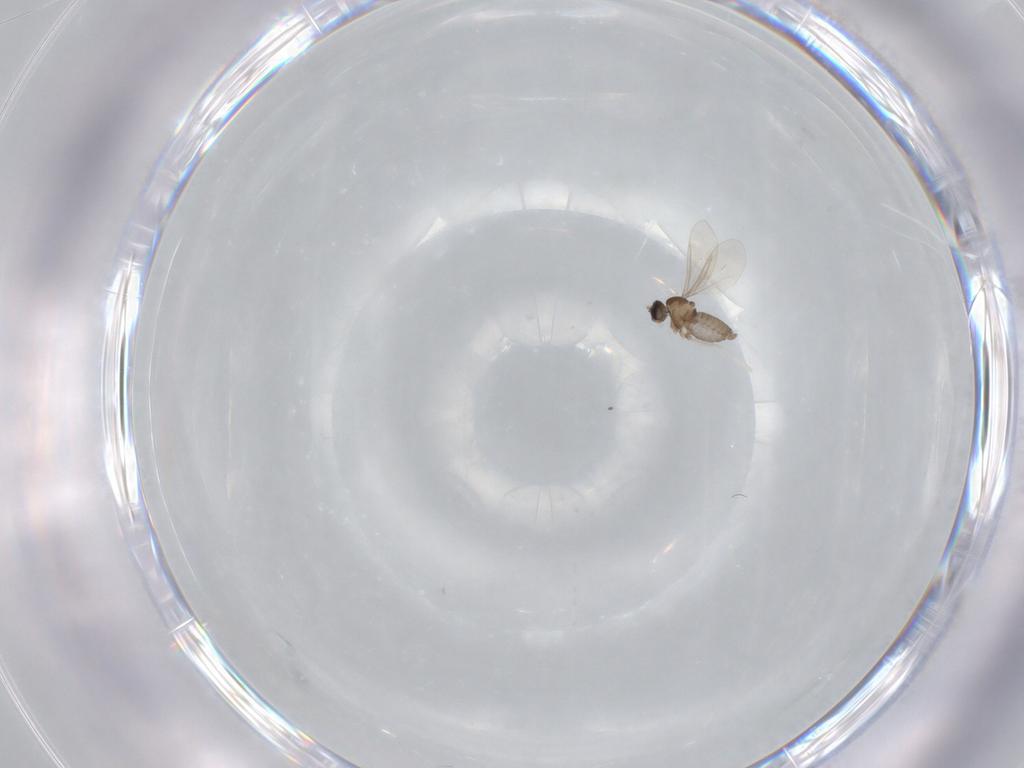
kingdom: Animalia
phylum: Arthropoda
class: Insecta
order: Diptera
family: Cecidomyiidae
